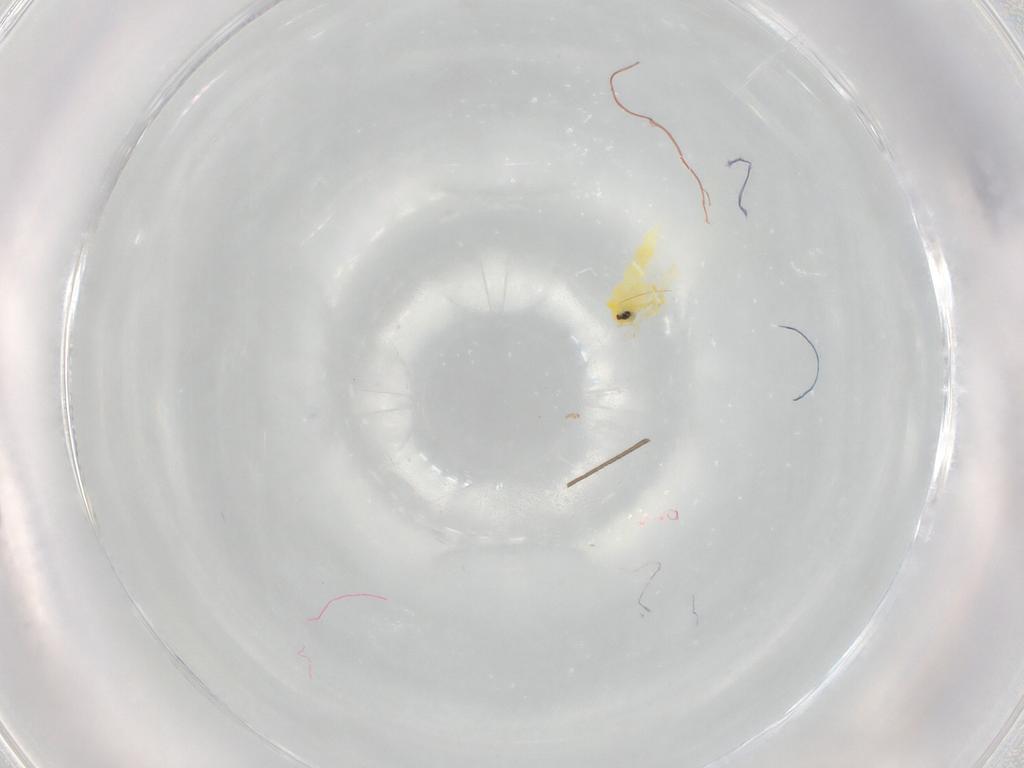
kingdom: Animalia
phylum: Arthropoda
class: Insecta
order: Hemiptera
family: Aleyrodidae
